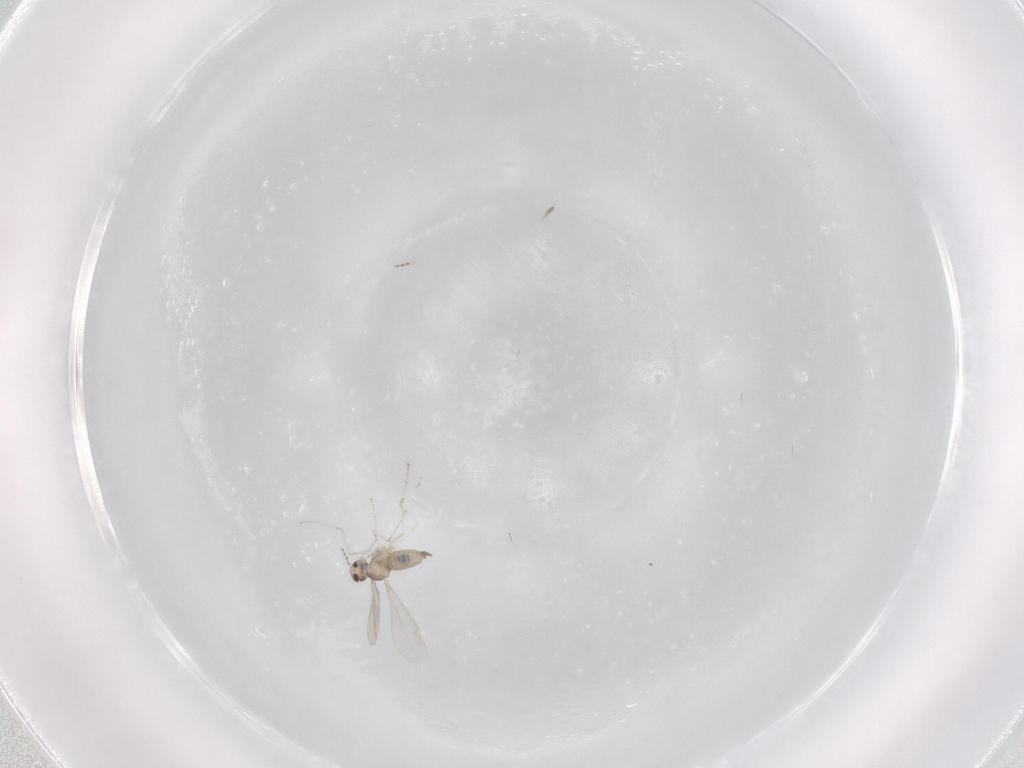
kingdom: Animalia
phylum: Arthropoda
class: Insecta
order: Diptera
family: Cecidomyiidae
